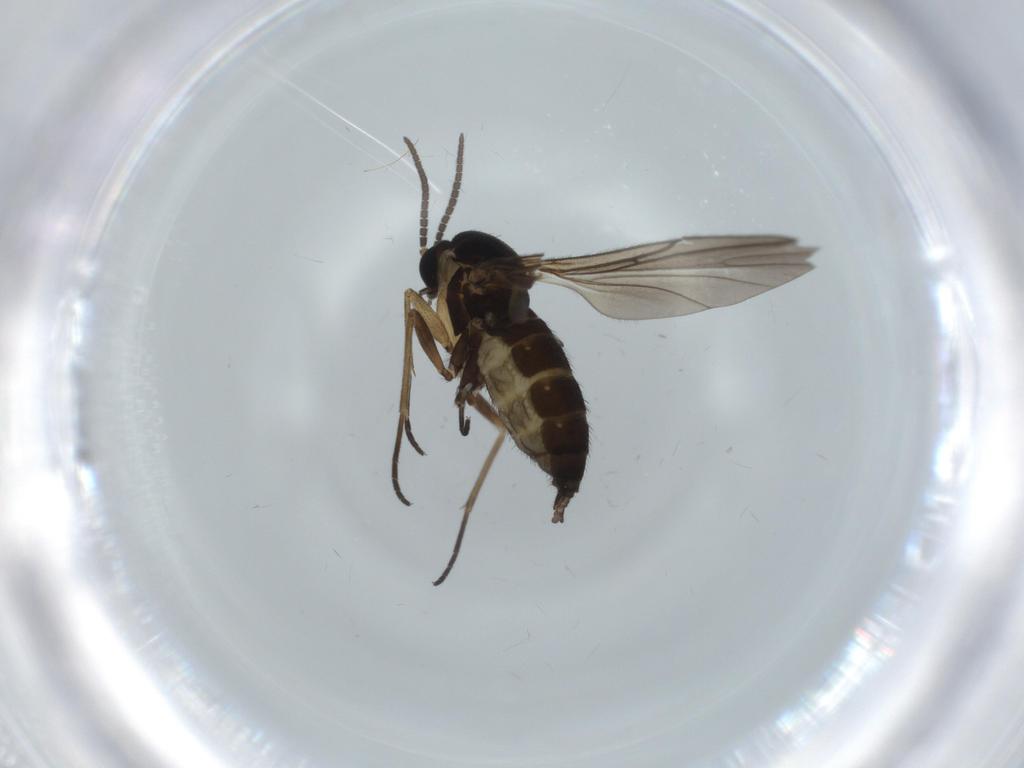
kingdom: Animalia
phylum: Arthropoda
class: Insecta
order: Diptera
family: Sciaridae
